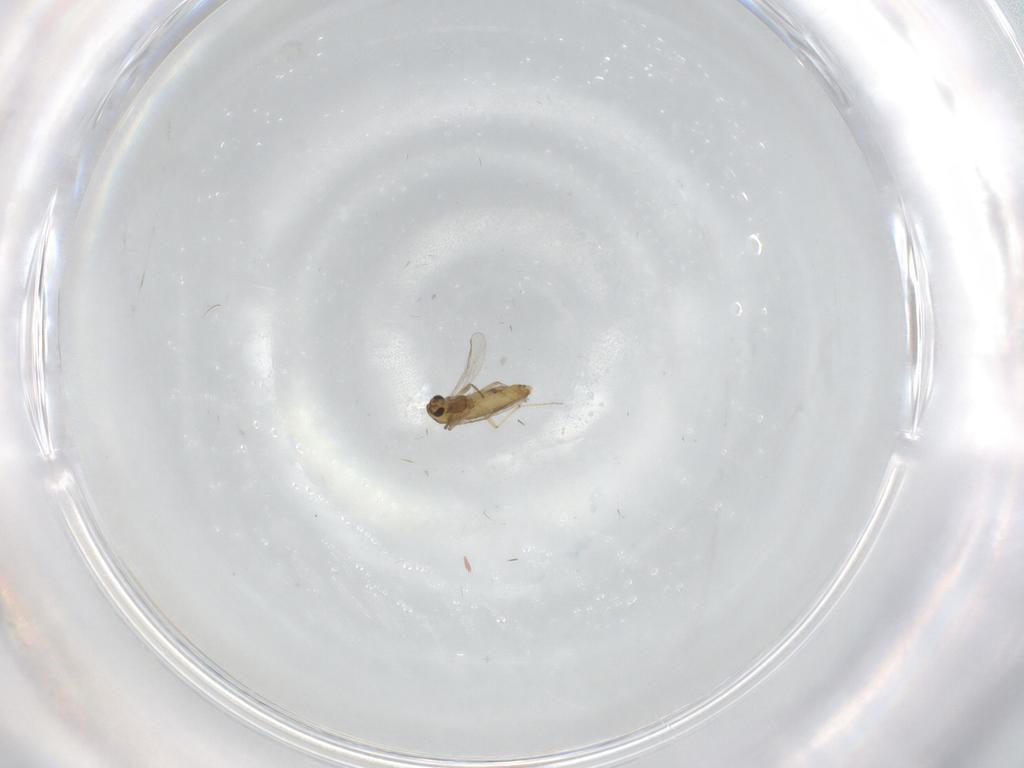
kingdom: Animalia
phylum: Arthropoda
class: Insecta
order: Diptera
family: Chironomidae
